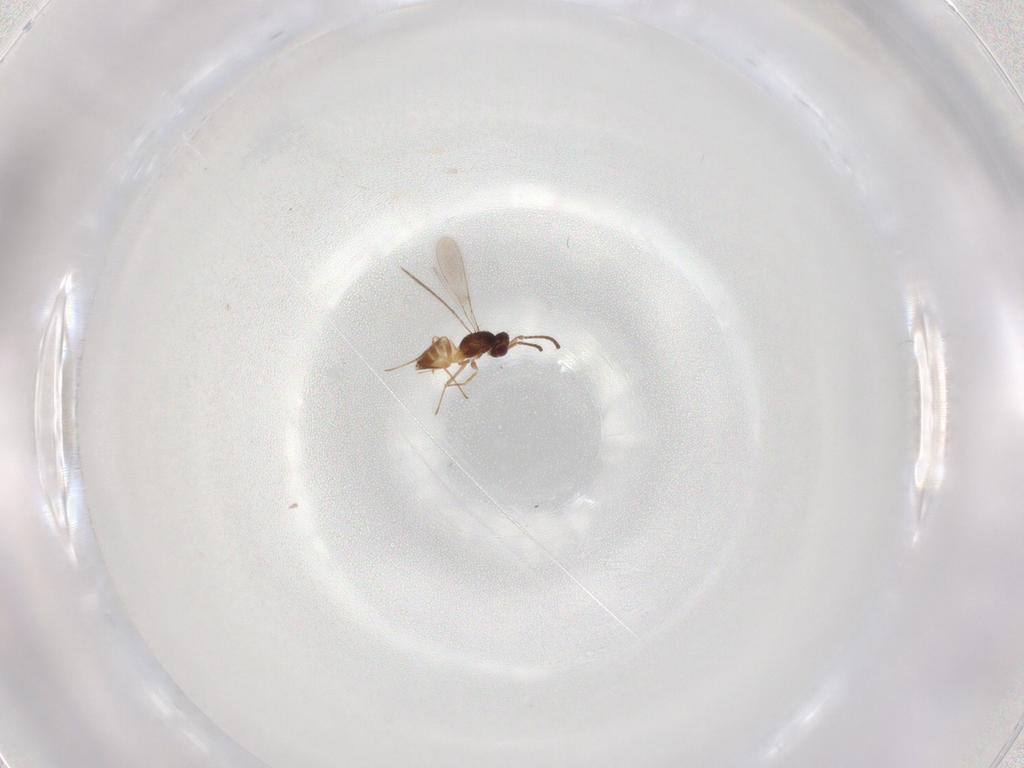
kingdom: Animalia
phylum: Arthropoda
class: Insecta
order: Hymenoptera
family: Mymaridae
